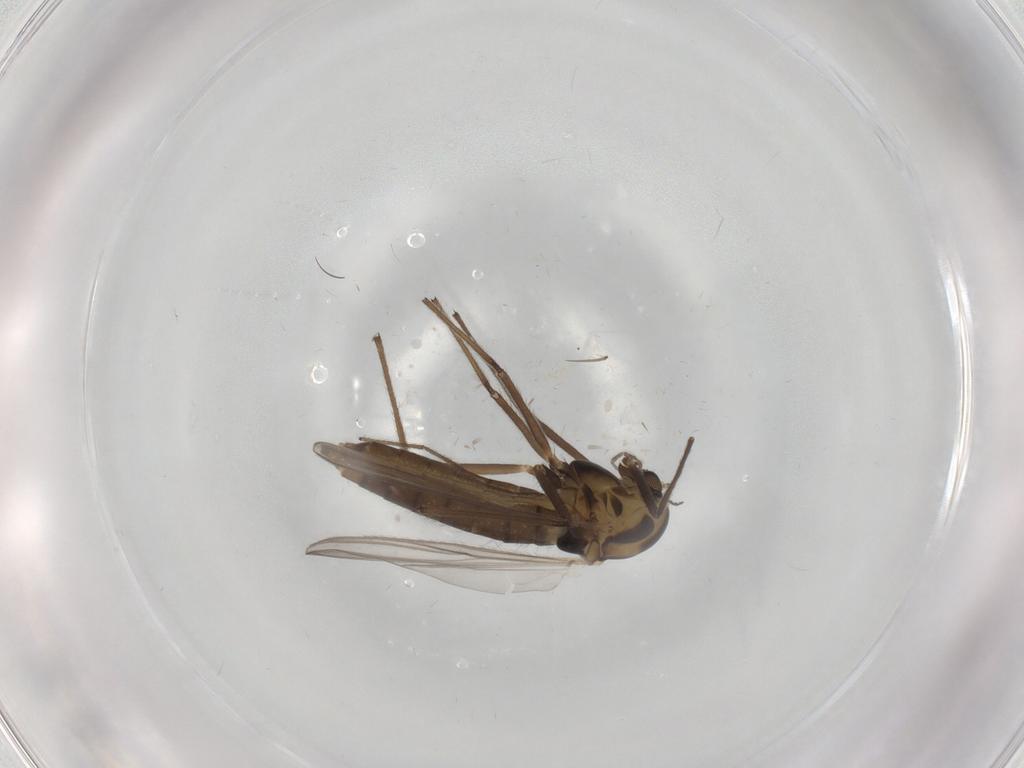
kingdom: Animalia
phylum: Arthropoda
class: Insecta
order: Diptera
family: Chironomidae
